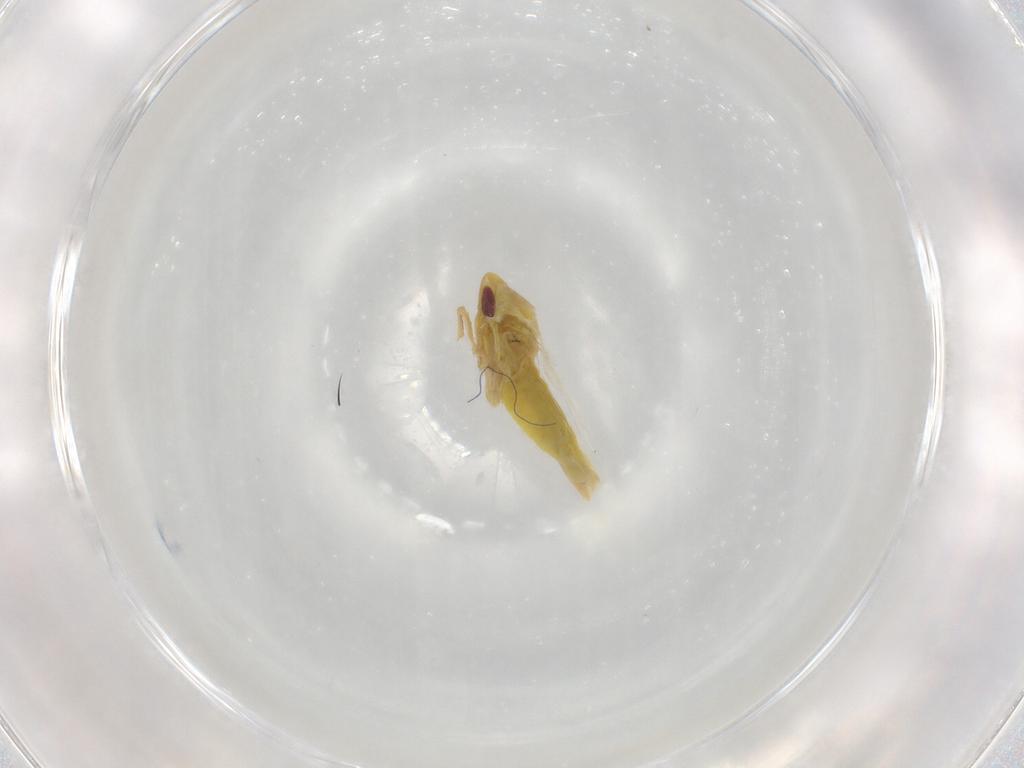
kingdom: Animalia
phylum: Arthropoda
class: Insecta
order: Hemiptera
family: Cicadellidae
